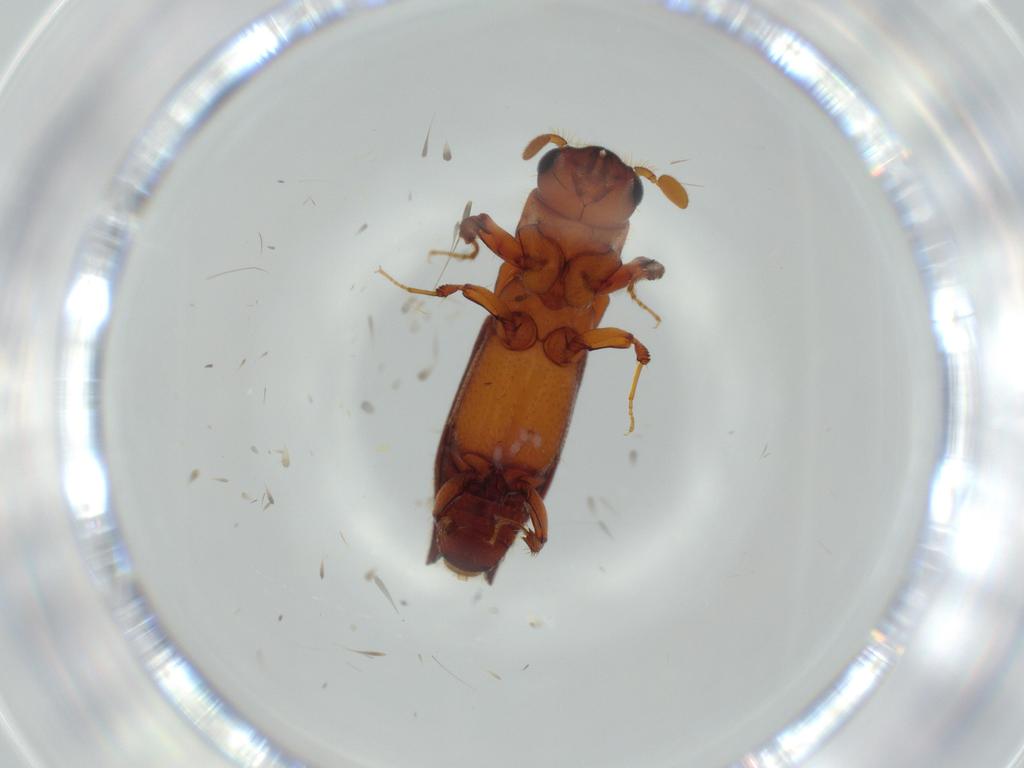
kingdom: Animalia
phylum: Arthropoda
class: Insecta
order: Coleoptera
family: Curculionidae
